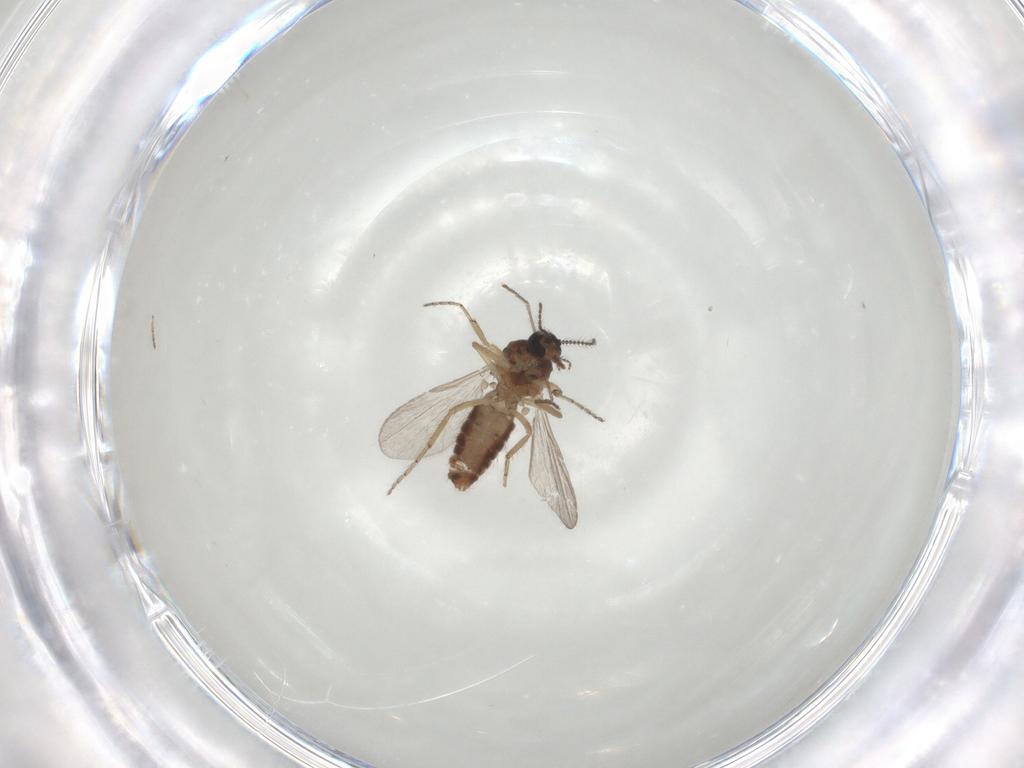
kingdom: Animalia
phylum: Arthropoda
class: Insecta
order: Diptera
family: Ceratopogonidae
